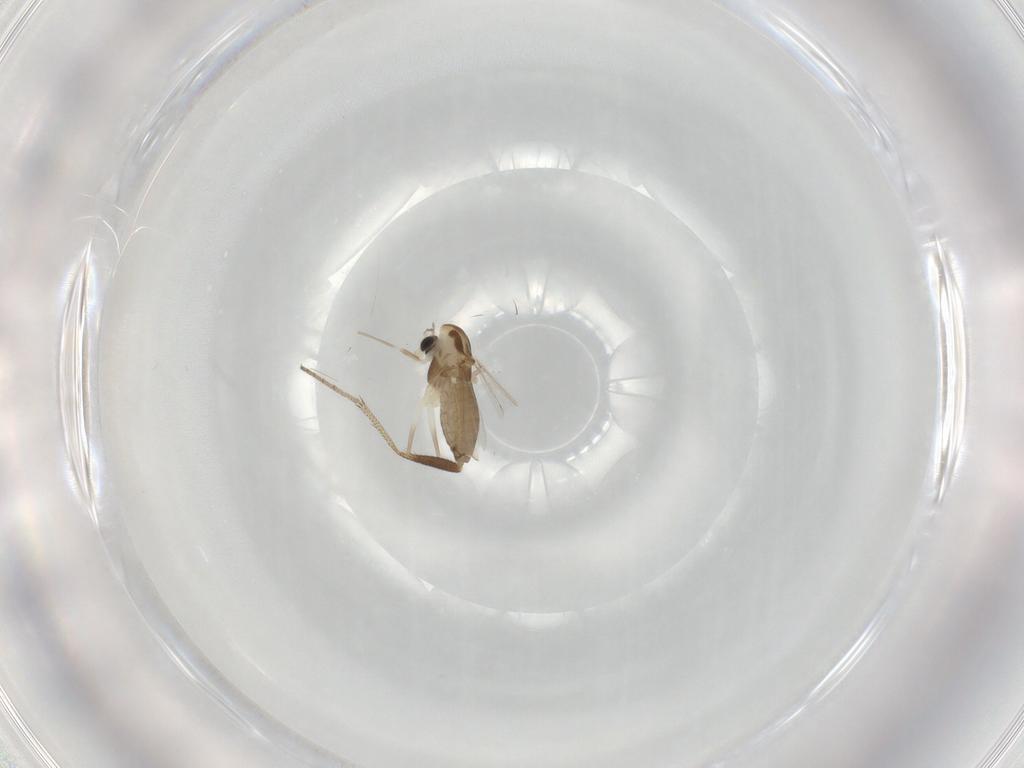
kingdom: Animalia
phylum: Arthropoda
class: Insecta
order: Diptera
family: Chironomidae
